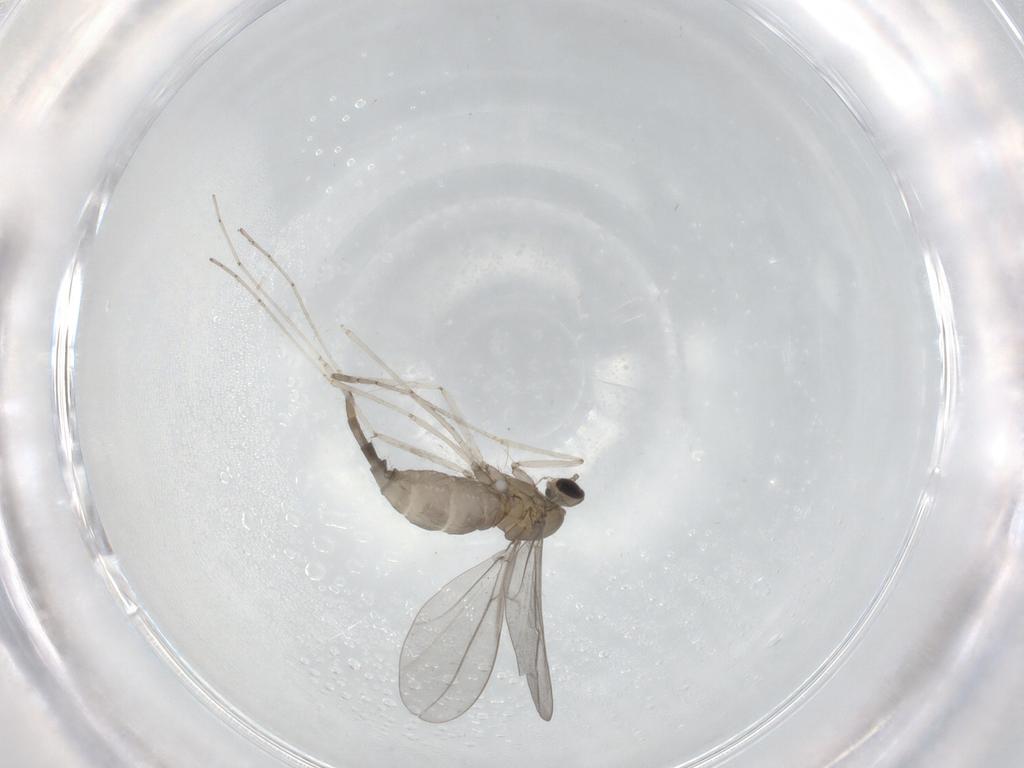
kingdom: Animalia
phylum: Arthropoda
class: Insecta
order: Diptera
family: Cecidomyiidae
